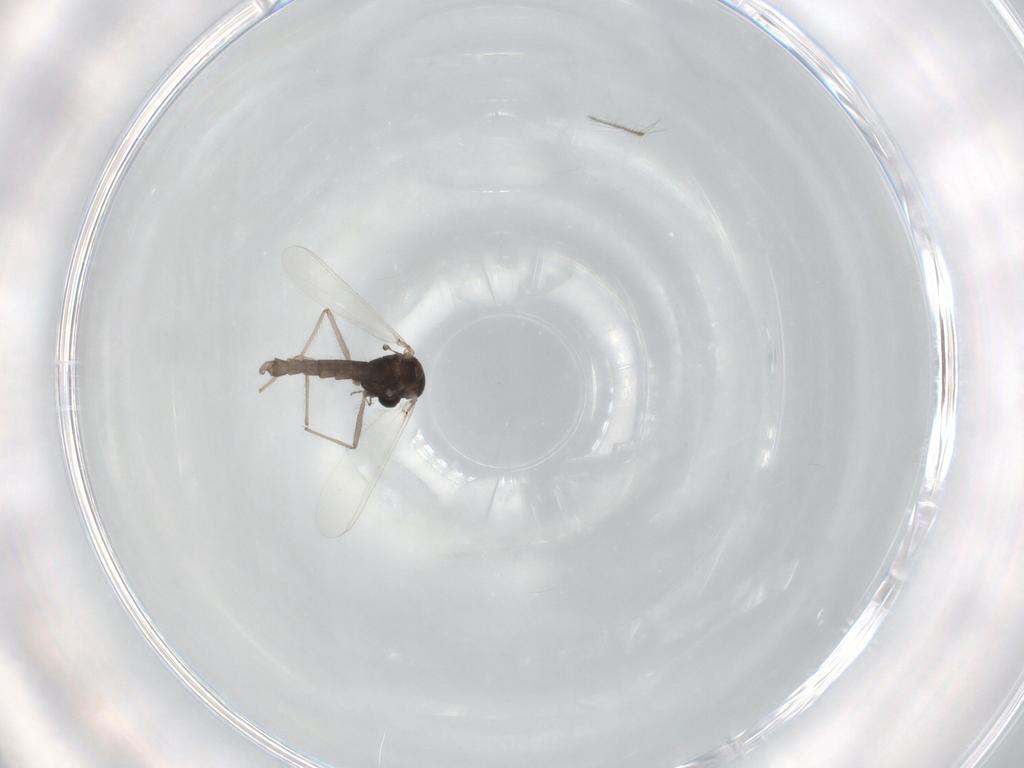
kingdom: Animalia
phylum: Arthropoda
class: Insecta
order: Diptera
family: Chironomidae
